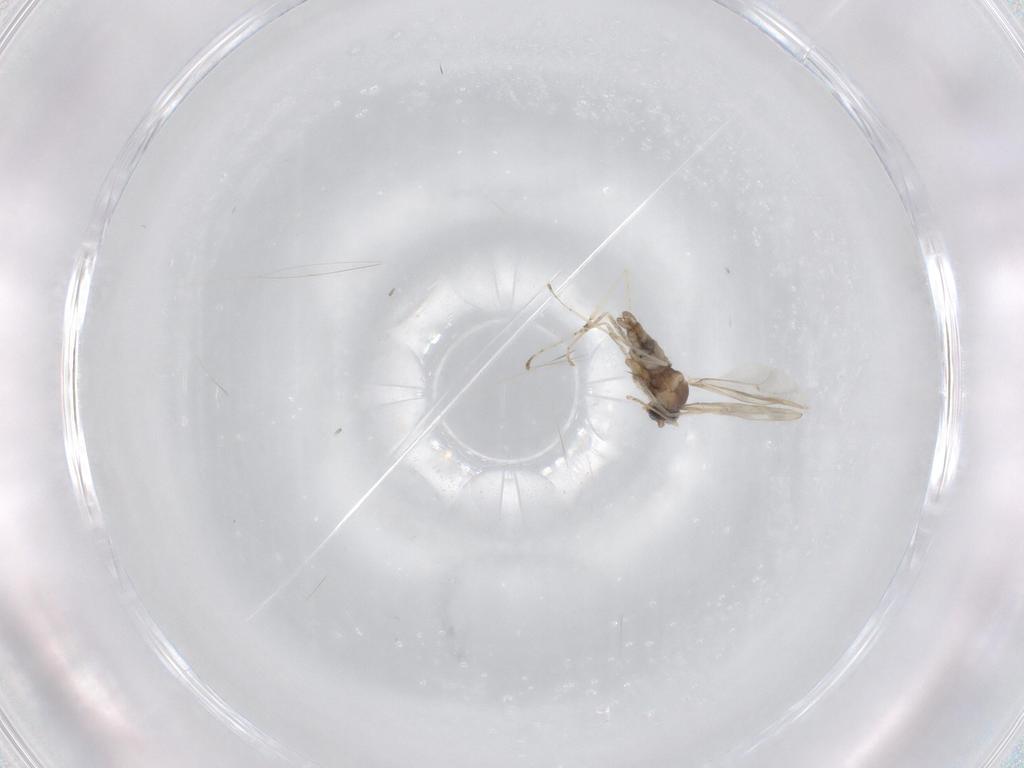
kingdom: Animalia
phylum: Arthropoda
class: Insecta
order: Diptera
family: Cecidomyiidae
